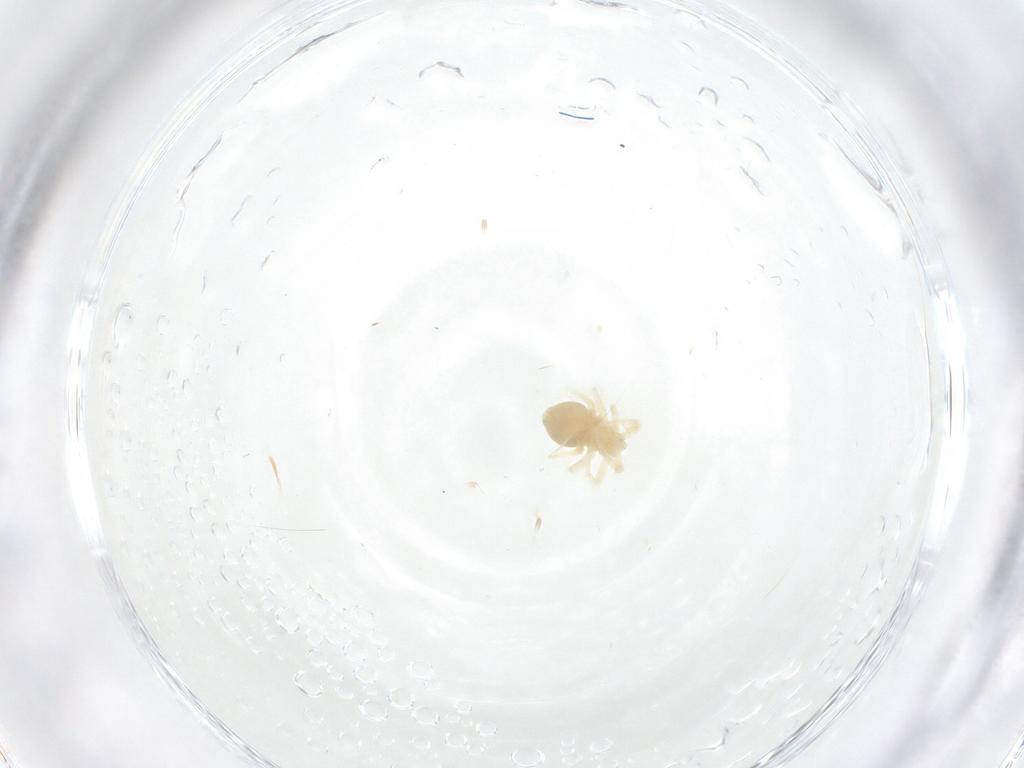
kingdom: Animalia
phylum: Arthropoda
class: Arachnida
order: Trombidiformes
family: Anystidae
